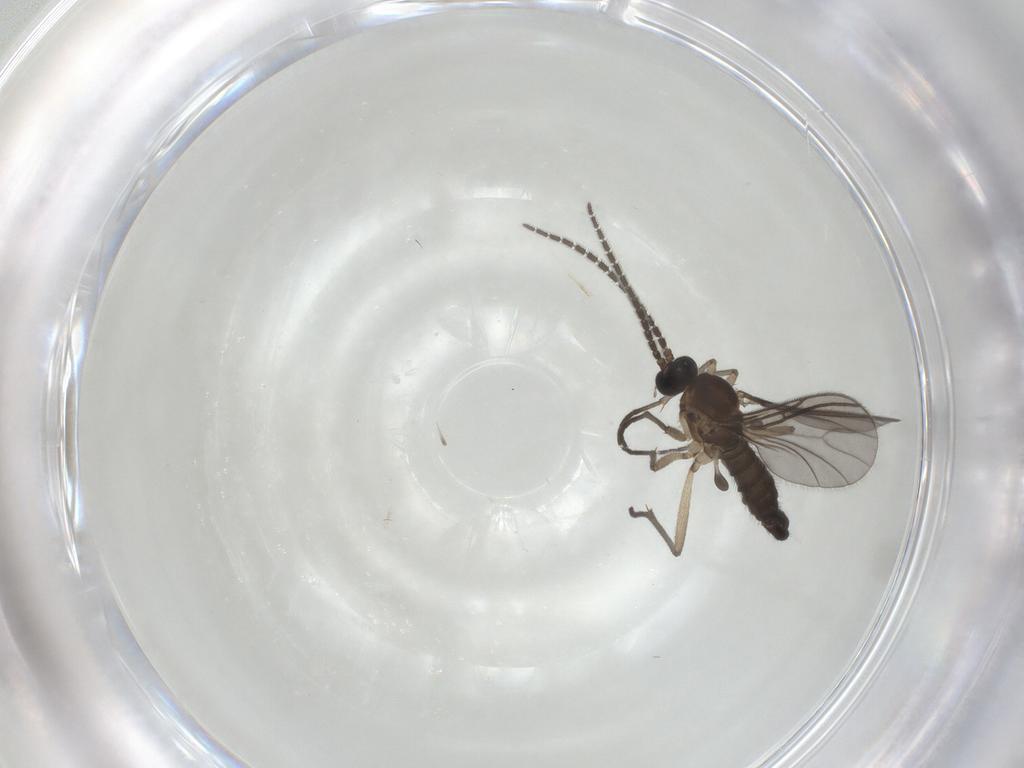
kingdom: Animalia
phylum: Arthropoda
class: Insecta
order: Diptera
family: Sciaridae
